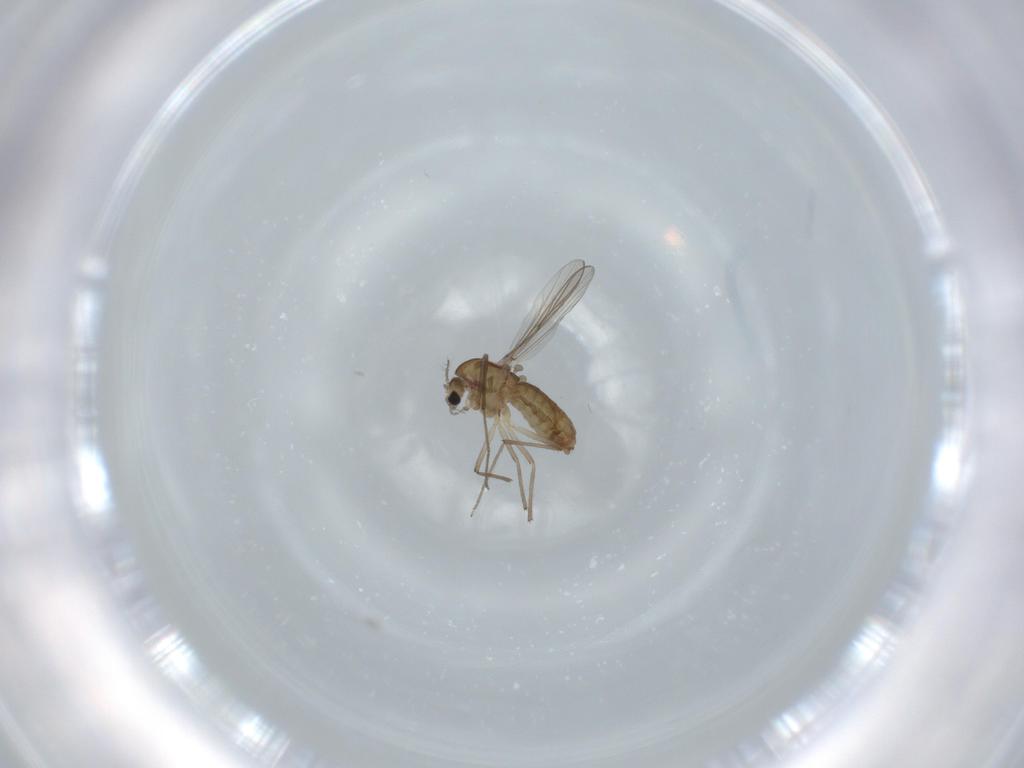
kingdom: Animalia
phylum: Arthropoda
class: Insecta
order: Diptera
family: Chironomidae
